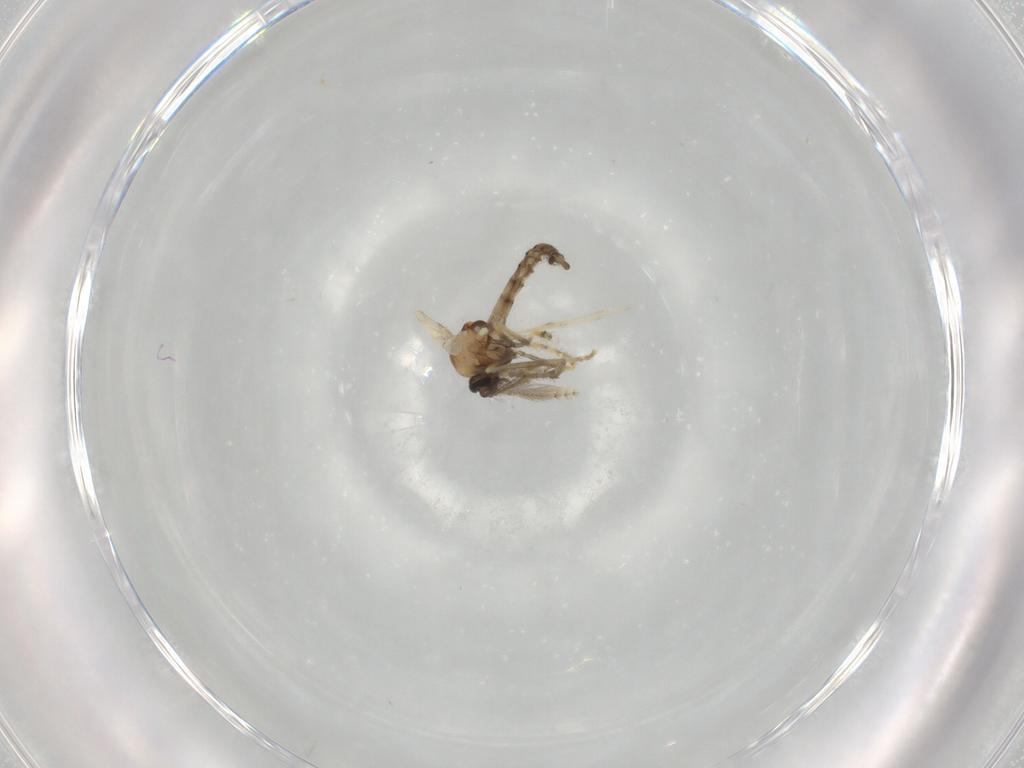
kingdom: Animalia
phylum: Arthropoda
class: Insecta
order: Diptera
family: Ceratopogonidae
